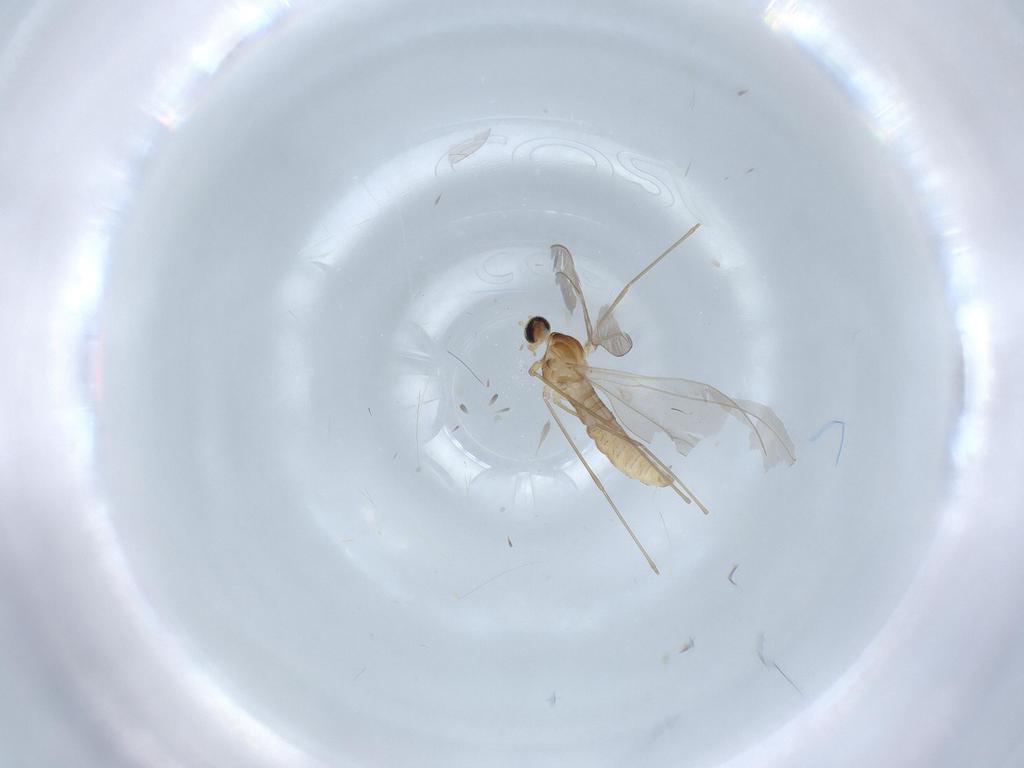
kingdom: Animalia
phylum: Arthropoda
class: Insecta
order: Diptera
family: Cecidomyiidae
